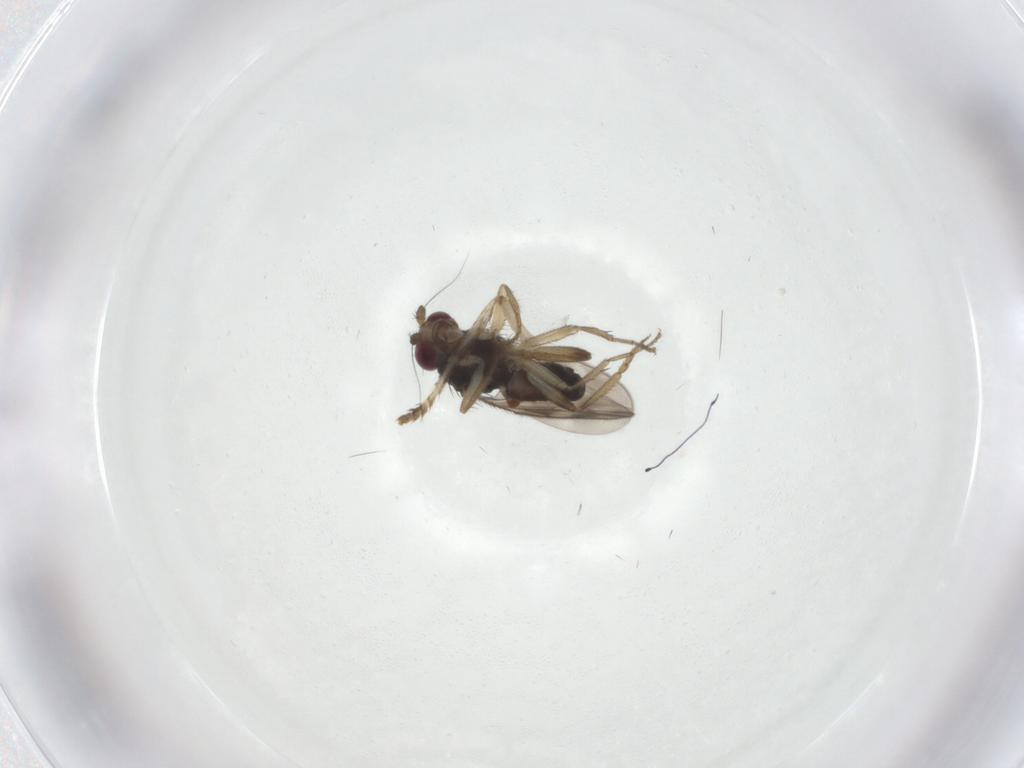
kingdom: Animalia
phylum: Arthropoda
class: Insecta
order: Diptera
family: Sphaeroceridae
